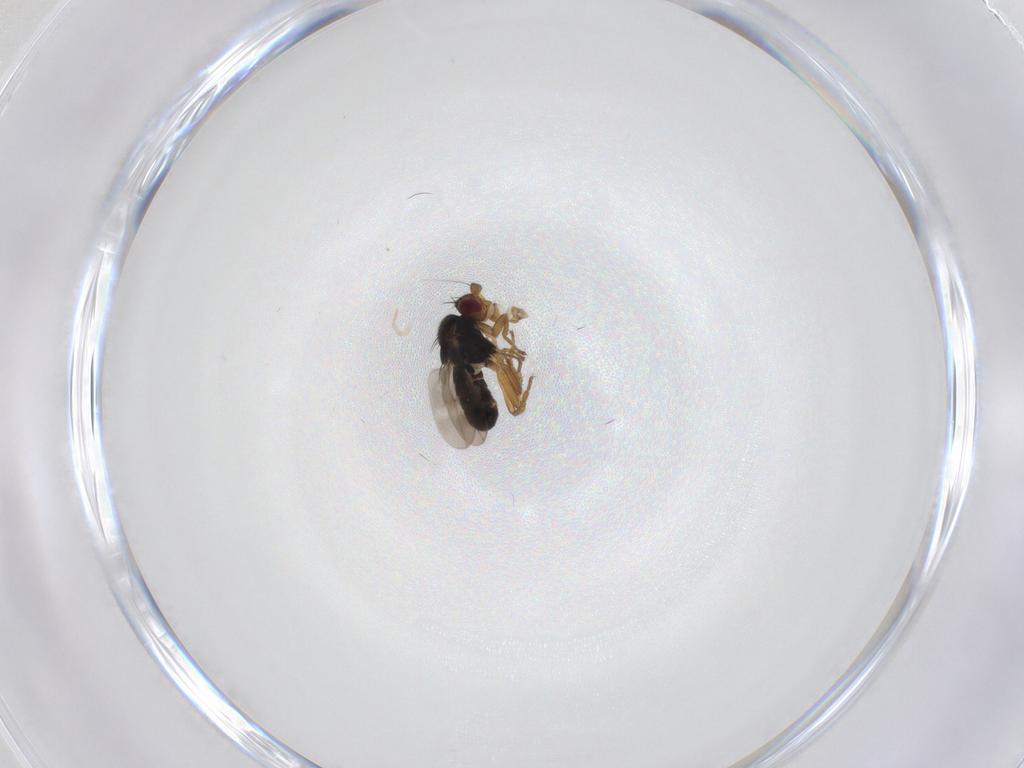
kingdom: Animalia
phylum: Arthropoda
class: Insecta
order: Diptera
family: Sphaeroceridae
